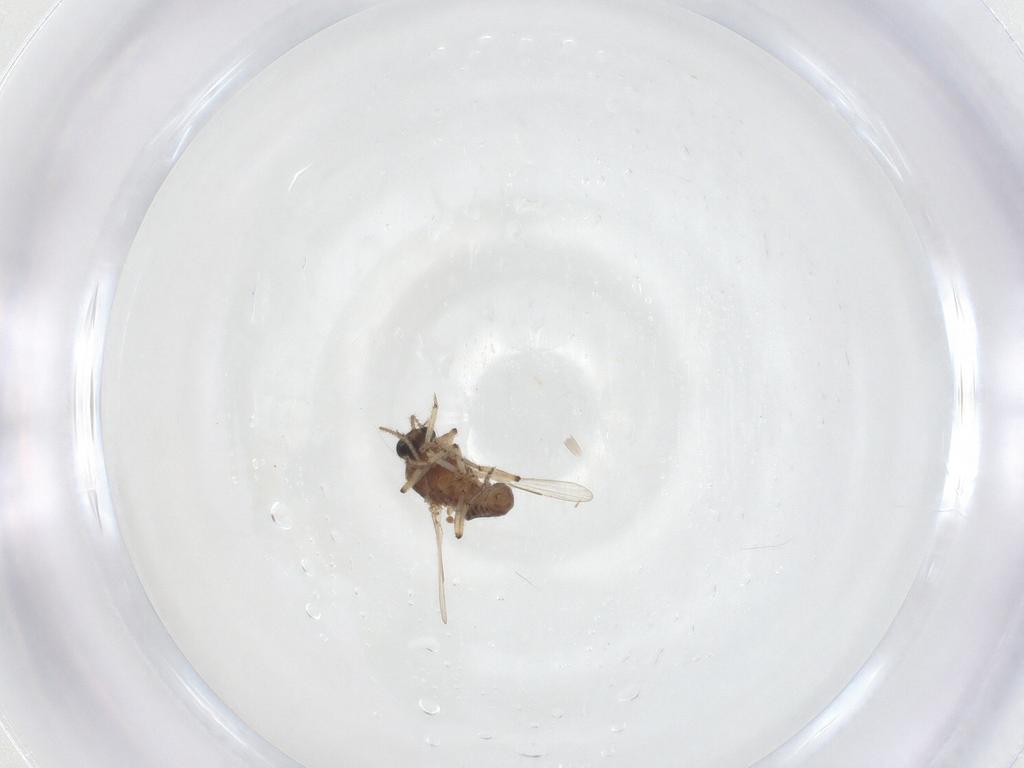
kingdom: Animalia
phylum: Arthropoda
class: Insecta
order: Diptera
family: Ceratopogonidae
